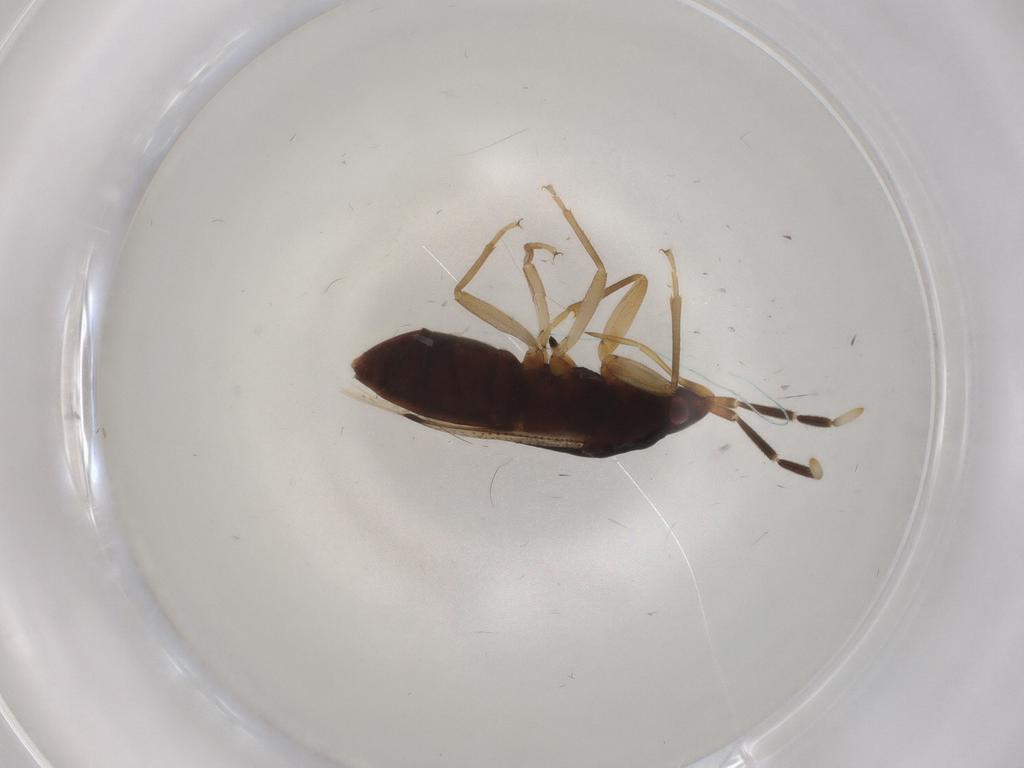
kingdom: Animalia
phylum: Arthropoda
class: Insecta
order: Hemiptera
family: Rhyparochromidae
